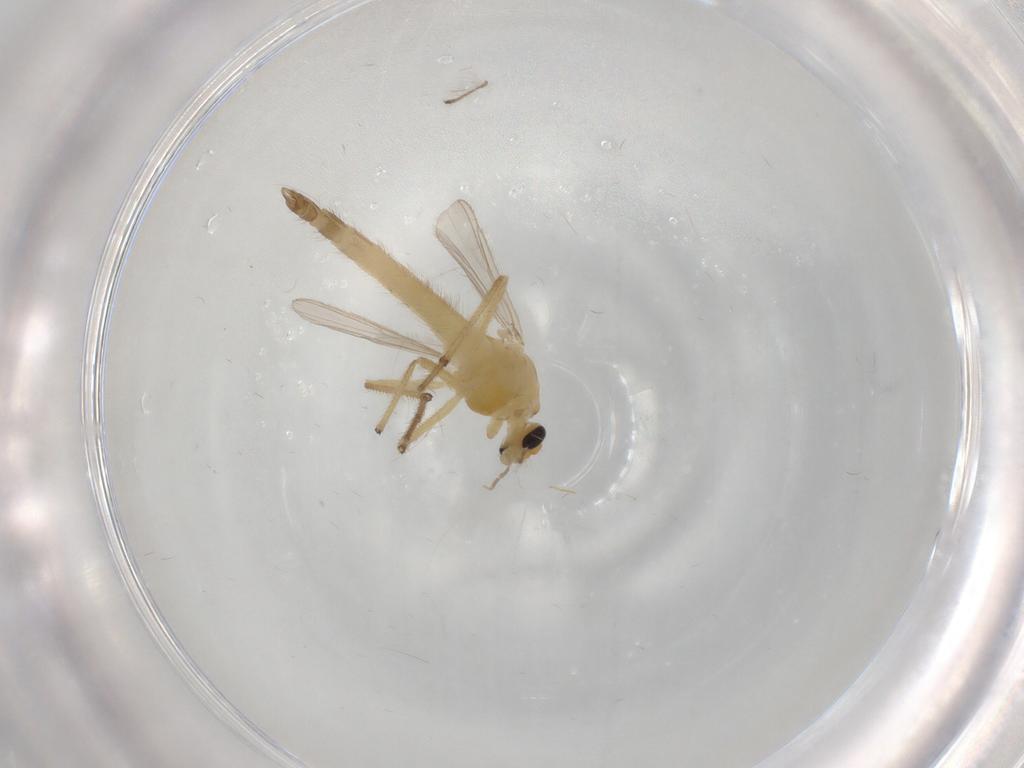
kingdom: Animalia
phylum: Arthropoda
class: Insecta
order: Diptera
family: Chironomidae
